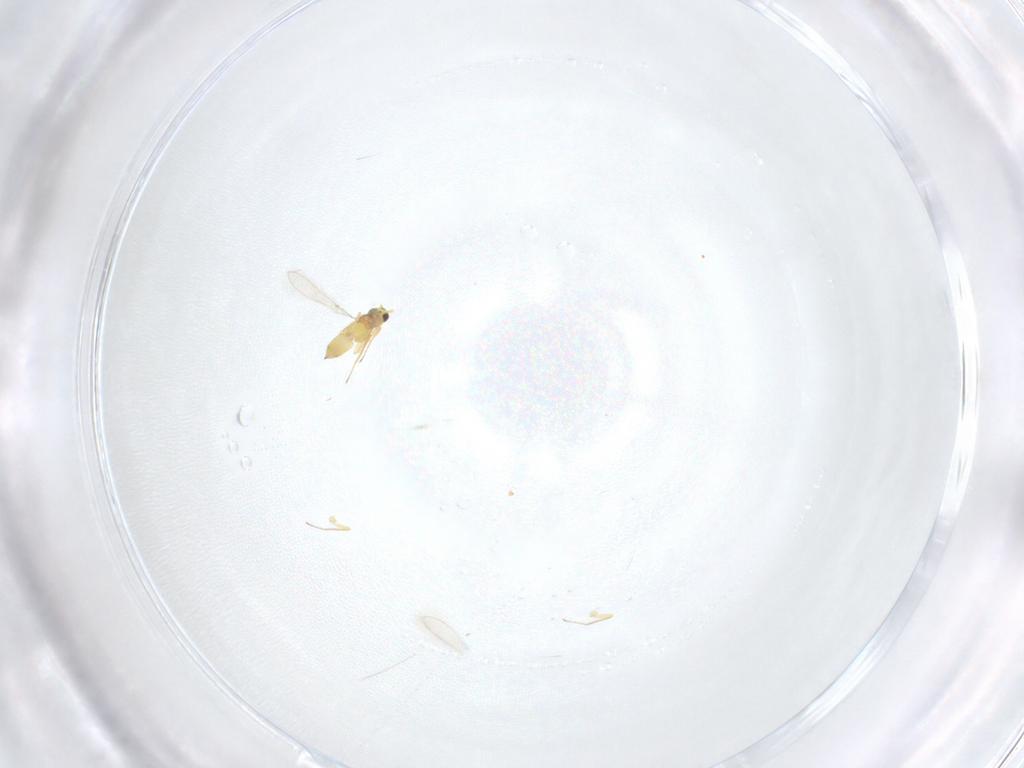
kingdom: Animalia
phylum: Arthropoda
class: Insecta
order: Hymenoptera
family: Mymaridae
